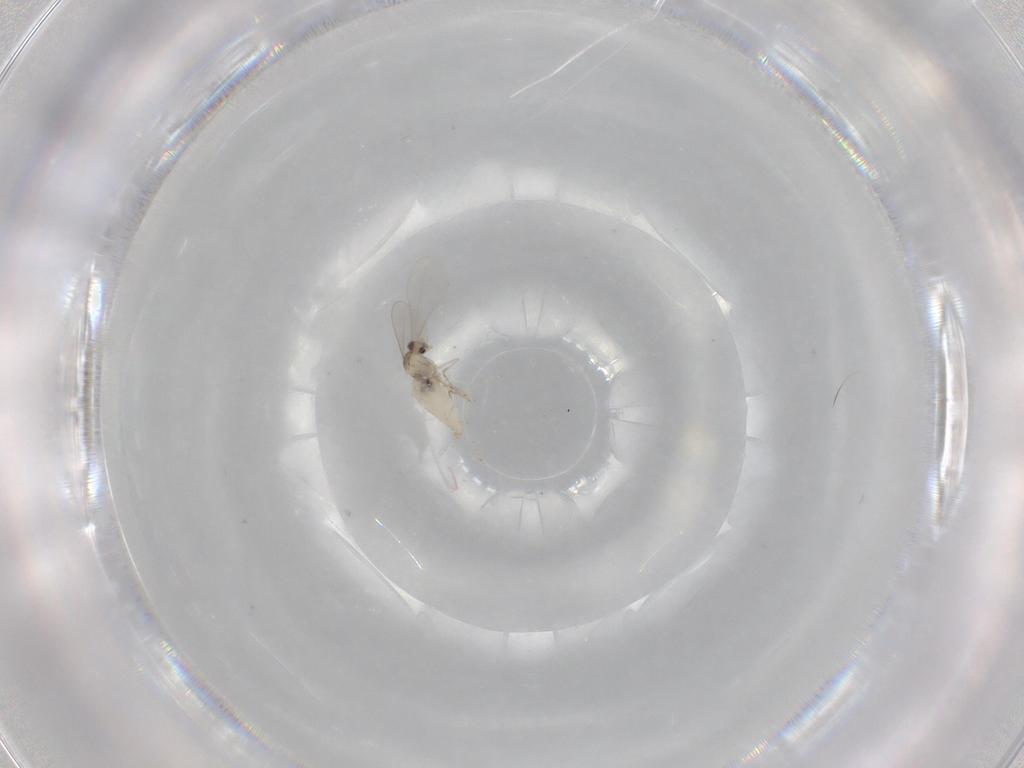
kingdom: Animalia
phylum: Arthropoda
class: Insecta
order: Diptera
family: Cecidomyiidae
